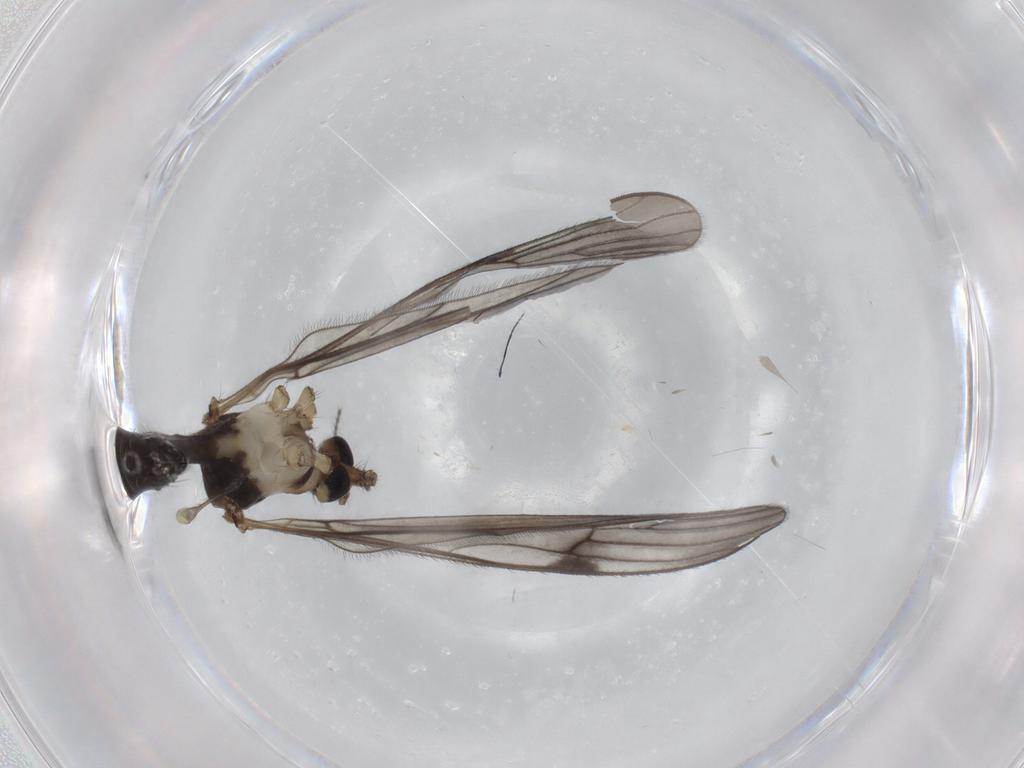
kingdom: Animalia
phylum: Arthropoda
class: Insecta
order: Diptera
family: Limoniidae
